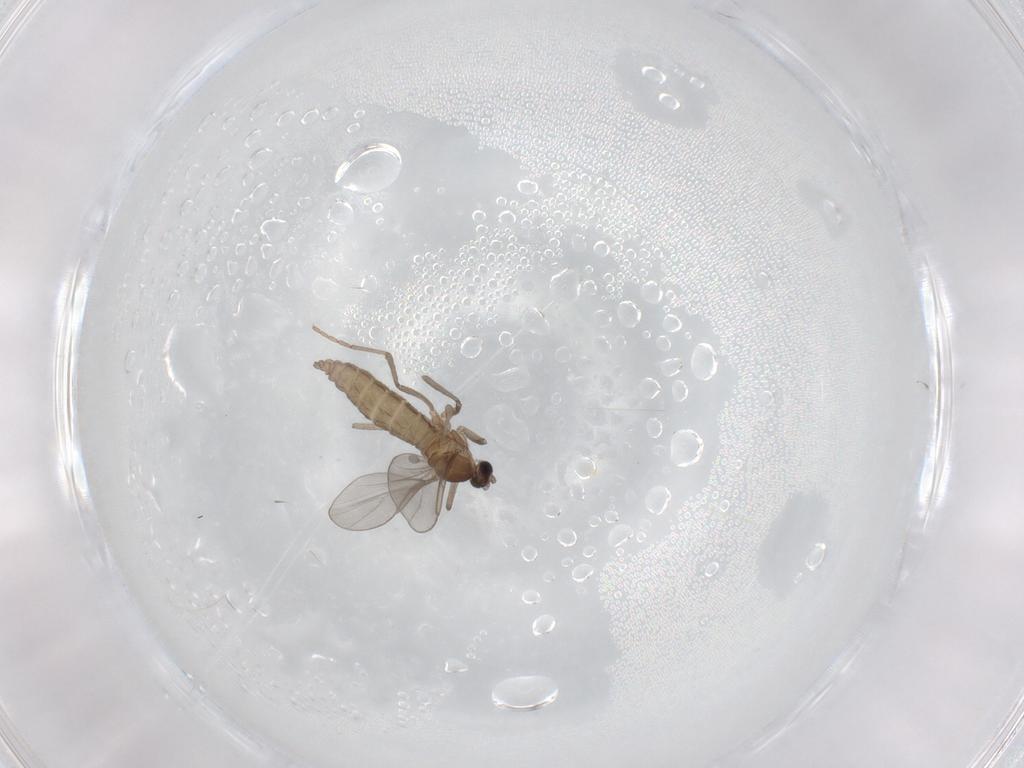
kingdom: Animalia
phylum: Arthropoda
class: Insecta
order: Diptera
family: Cecidomyiidae
